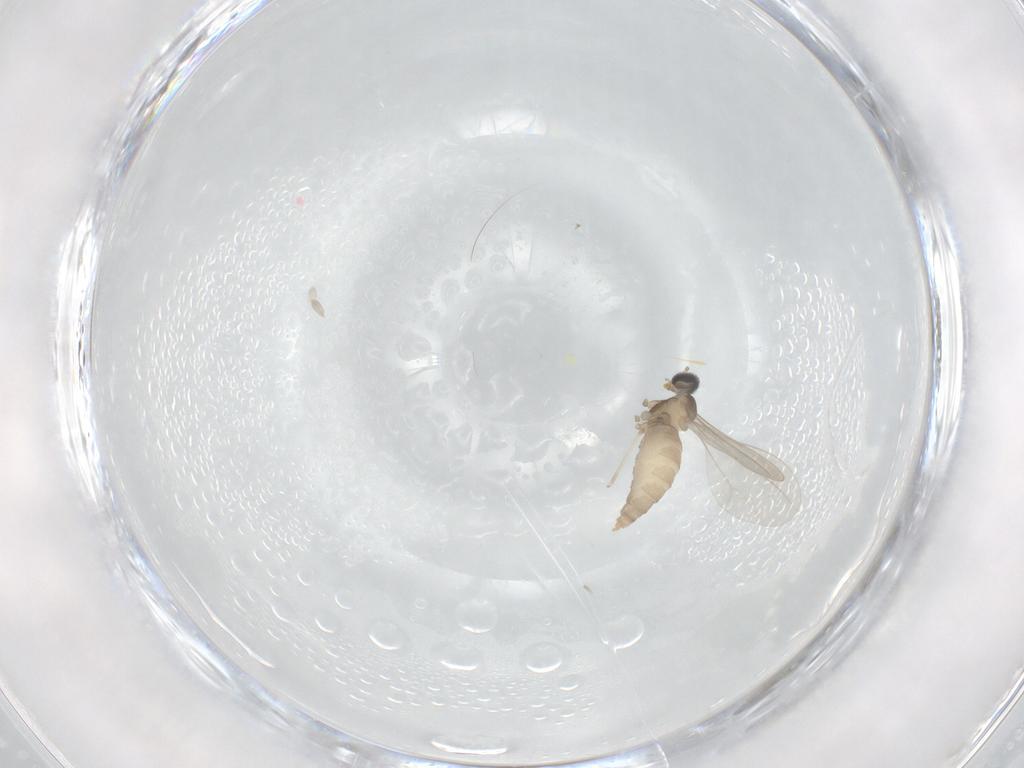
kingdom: Animalia
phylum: Arthropoda
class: Insecta
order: Diptera
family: Cecidomyiidae
